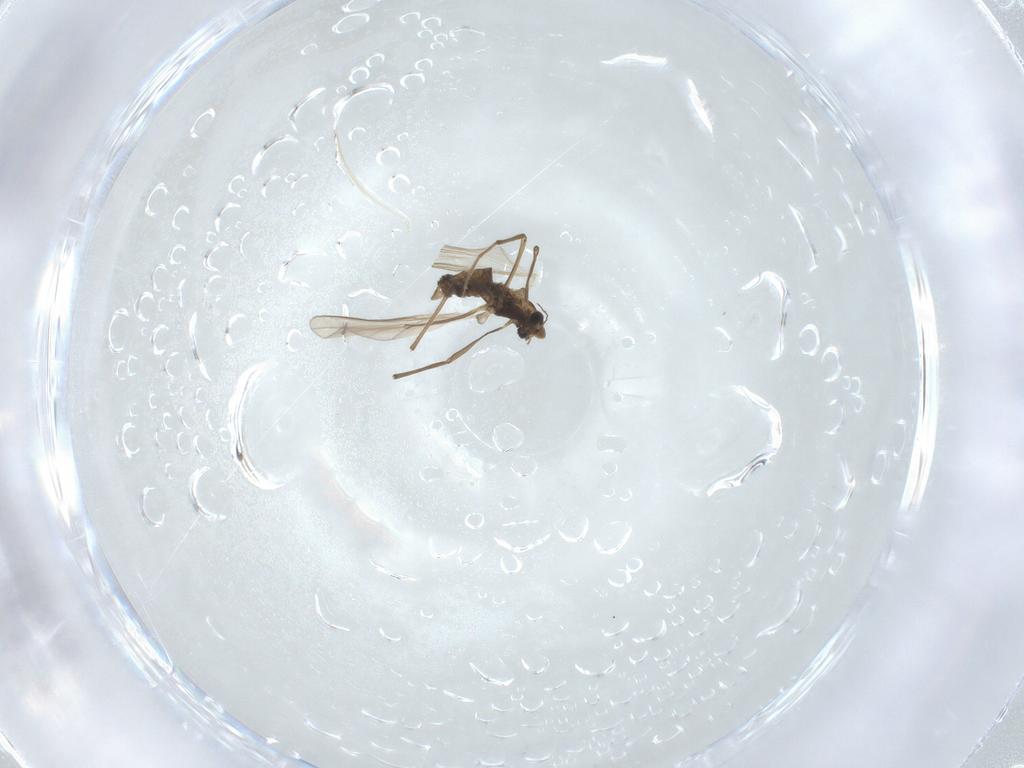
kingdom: Animalia
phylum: Arthropoda
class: Insecta
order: Diptera
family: Chironomidae
